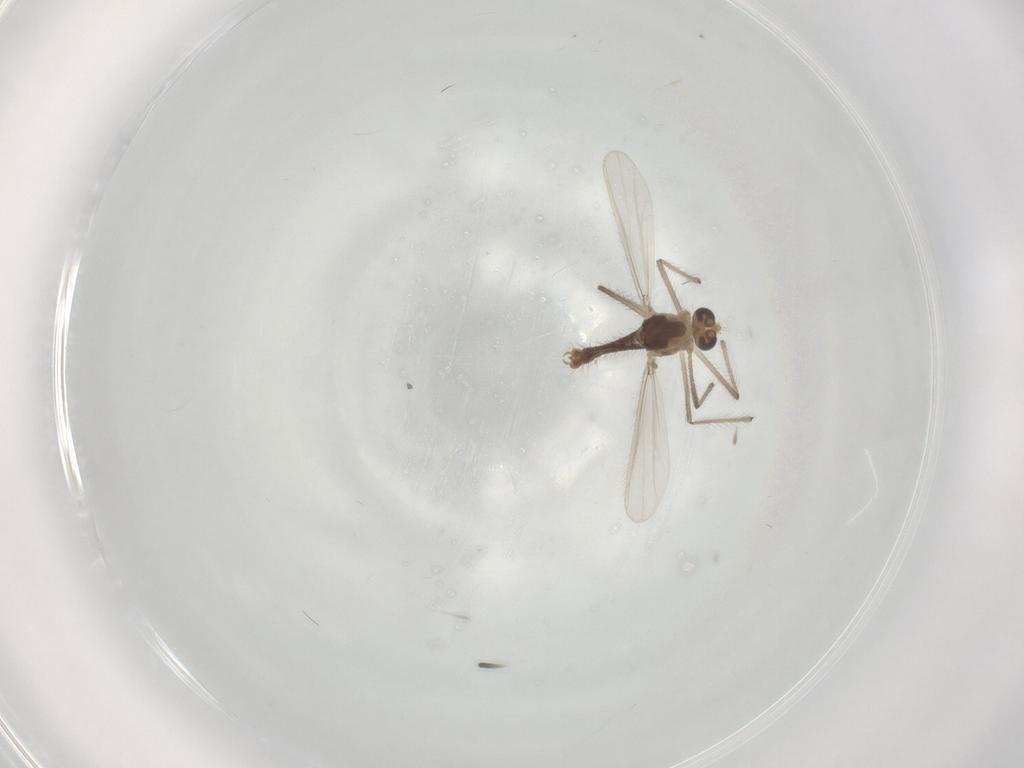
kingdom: Animalia
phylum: Arthropoda
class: Insecta
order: Diptera
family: Chironomidae
